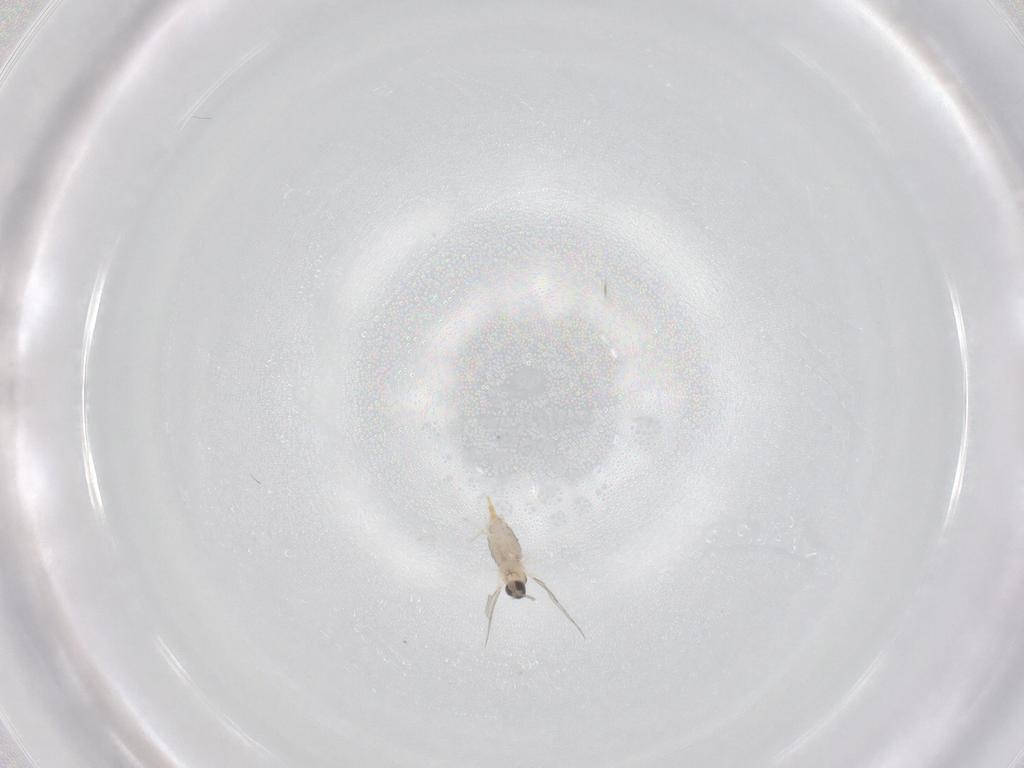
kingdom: Animalia
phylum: Arthropoda
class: Insecta
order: Diptera
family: Cecidomyiidae
